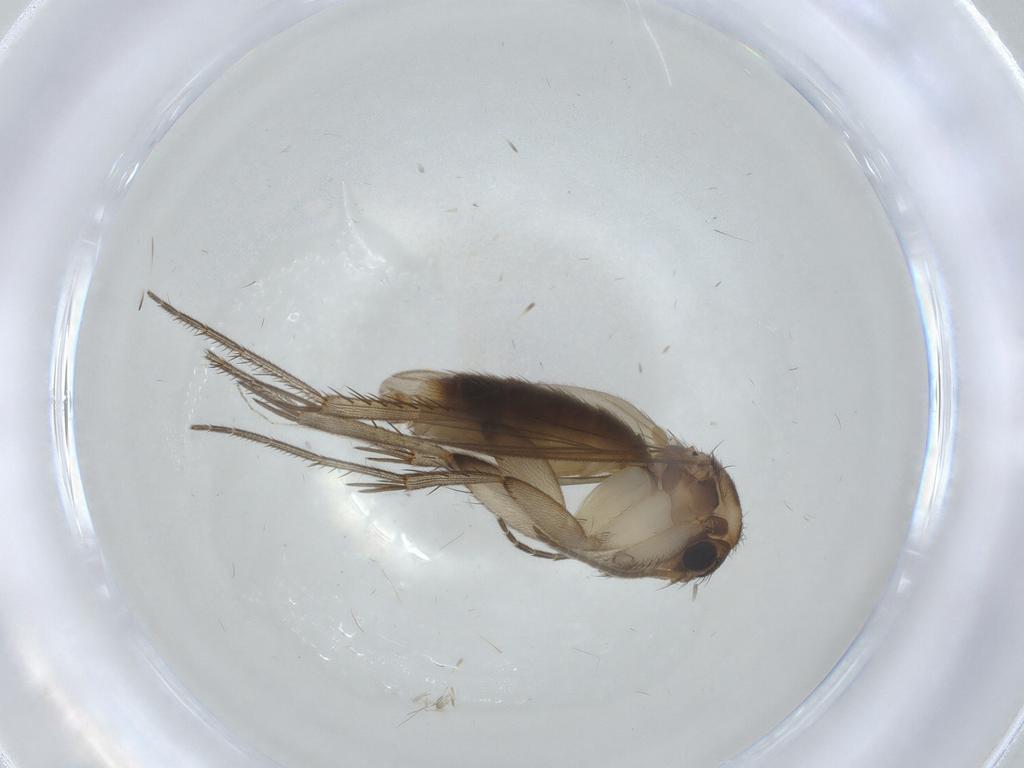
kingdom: Animalia
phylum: Arthropoda
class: Insecta
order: Diptera
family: Mycetophilidae
